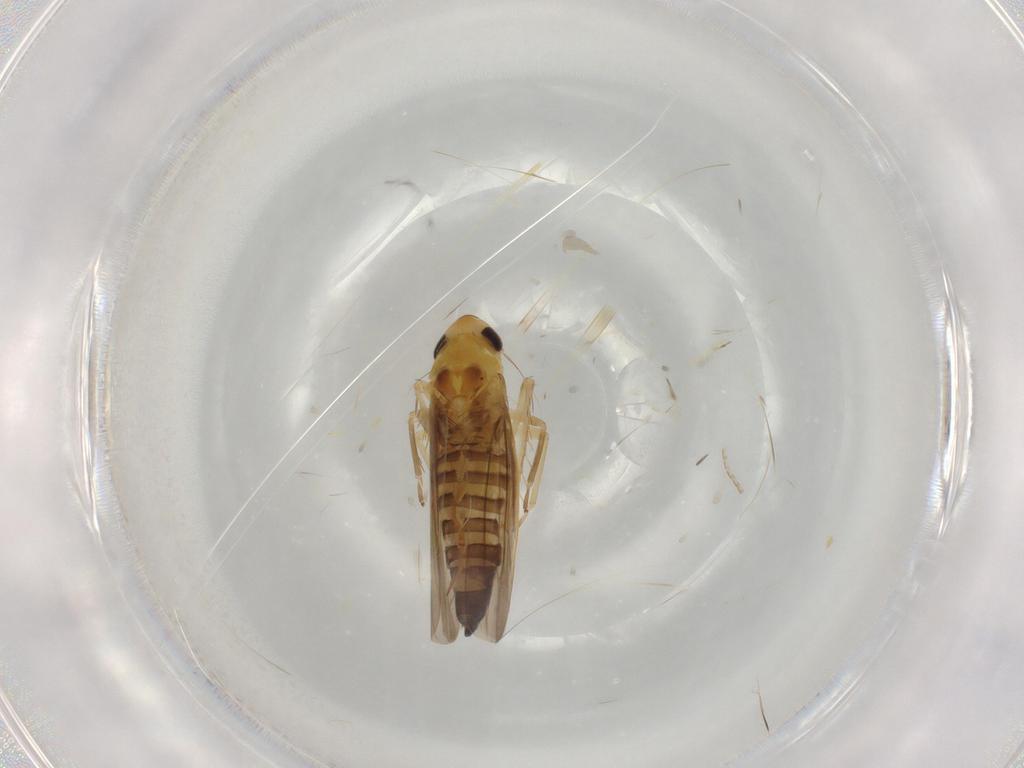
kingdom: Animalia
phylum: Arthropoda
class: Insecta
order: Hemiptera
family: Cicadellidae
